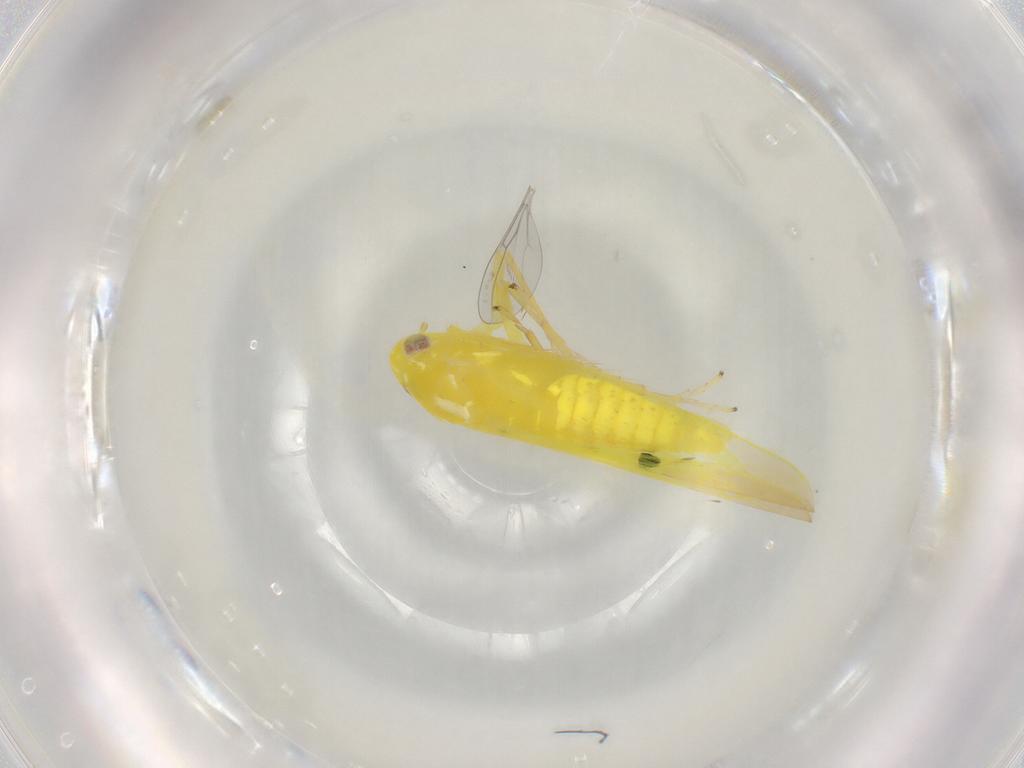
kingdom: Animalia
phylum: Arthropoda
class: Insecta
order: Hemiptera
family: Cicadellidae
